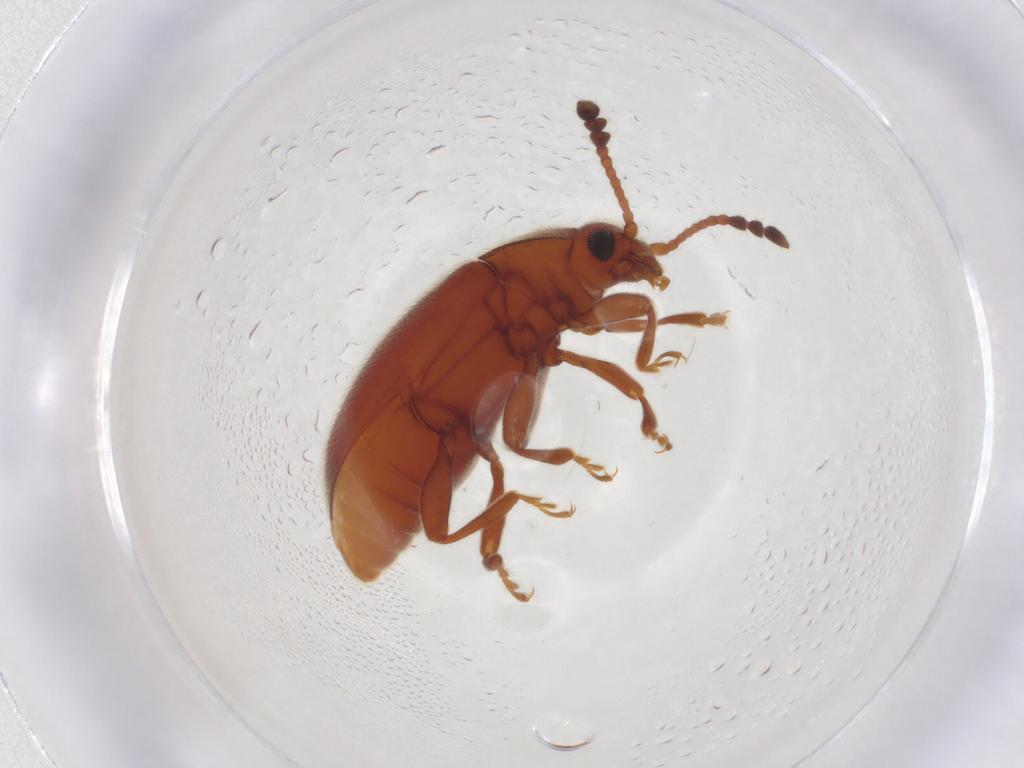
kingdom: Animalia
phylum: Arthropoda
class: Insecta
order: Coleoptera
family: Endomychidae
